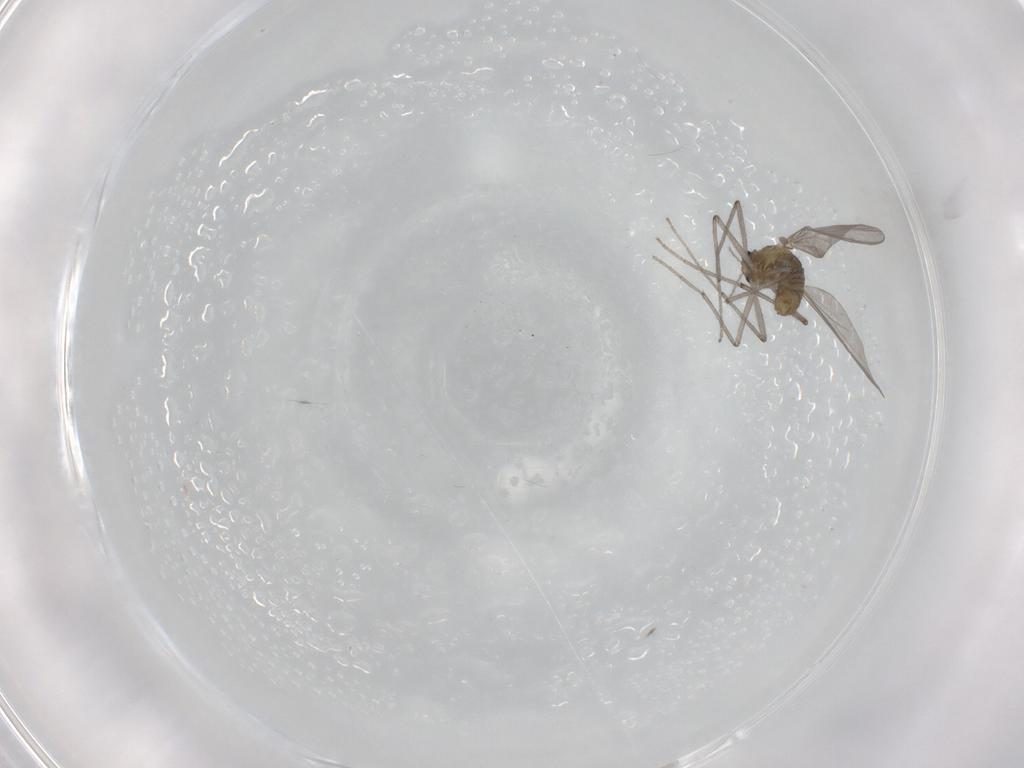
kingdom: Animalia
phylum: Arthropoda
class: Insecta
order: Diptera
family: Chironomidae
